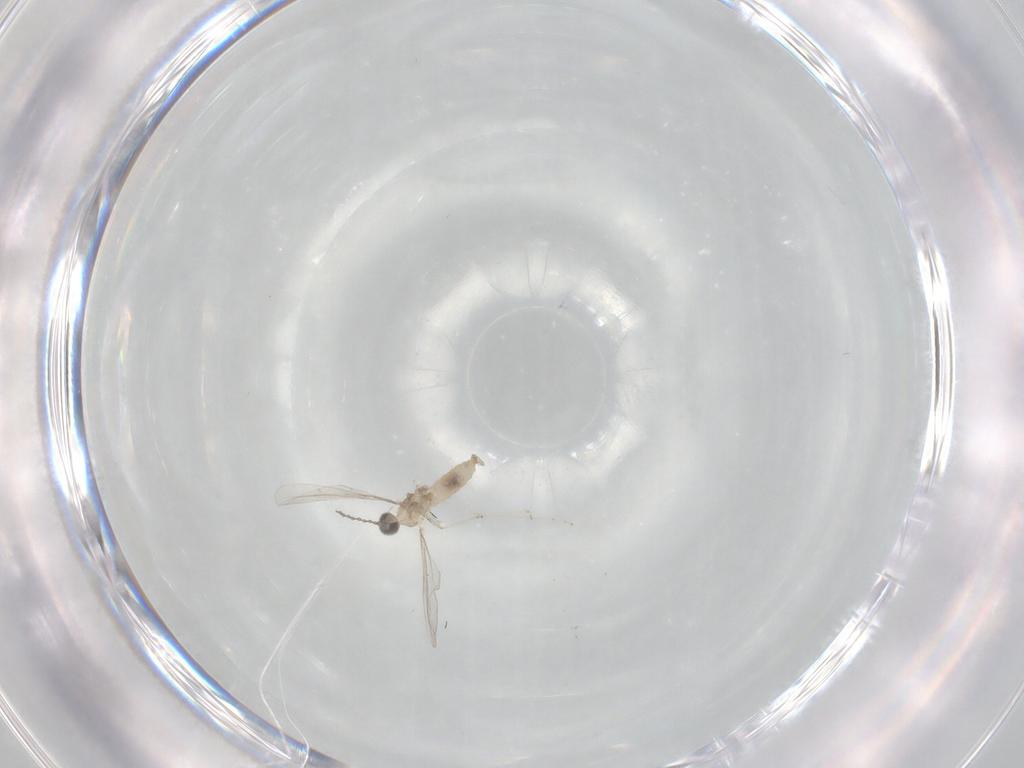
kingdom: Animalia
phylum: Arthropoda
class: Insecta
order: Diptera
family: Cecidomyiidae
